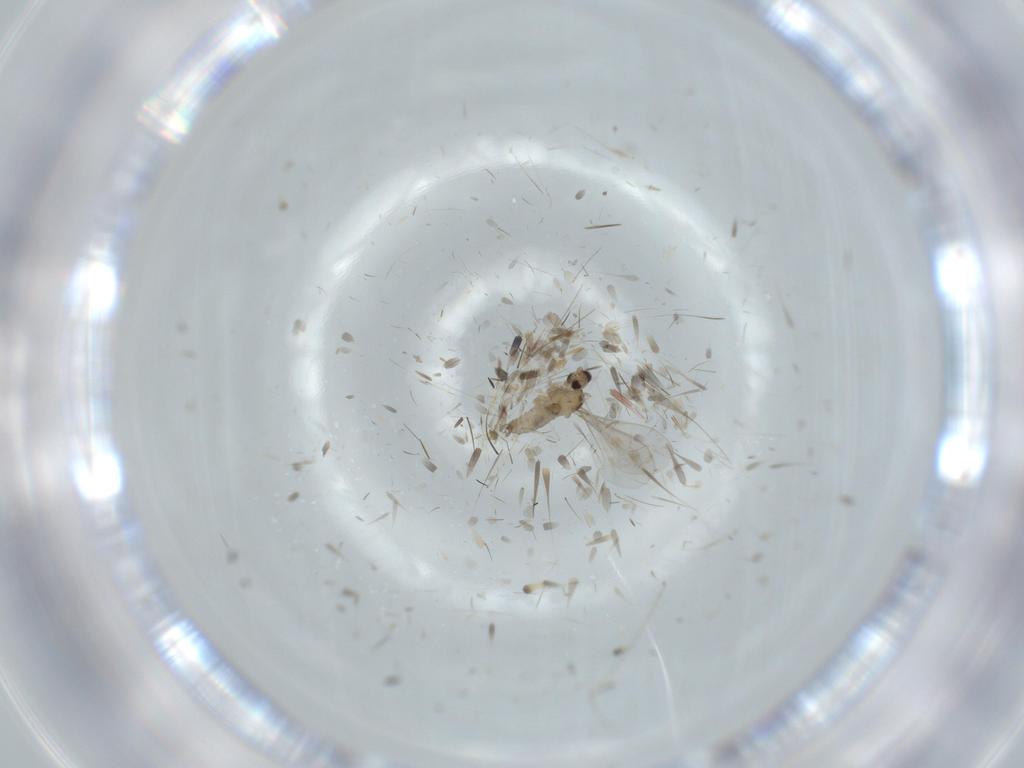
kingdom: Animalia
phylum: Arthropoda
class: Insecta
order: Diptera
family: Cecidomyiidae
